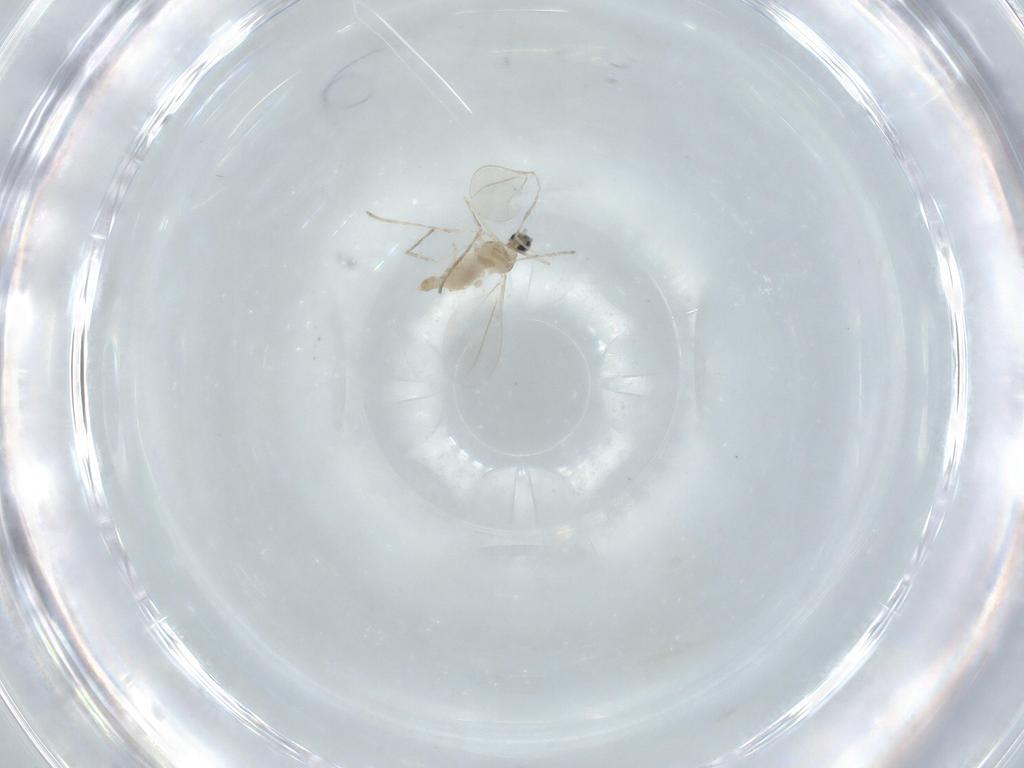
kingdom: Animalia
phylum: Arthropoda
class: Insecta
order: Diptera
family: Cecidomyiidae
